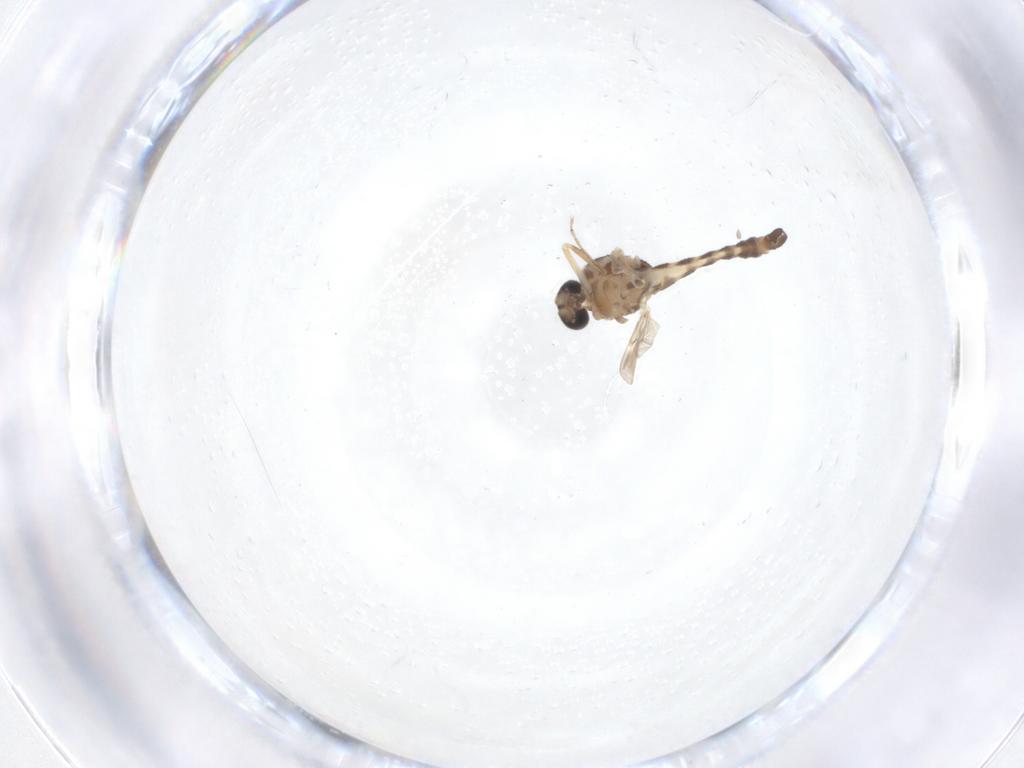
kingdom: Animalia
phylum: Arthropoda
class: Insecta
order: Diptera
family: Ceratopogonidae
